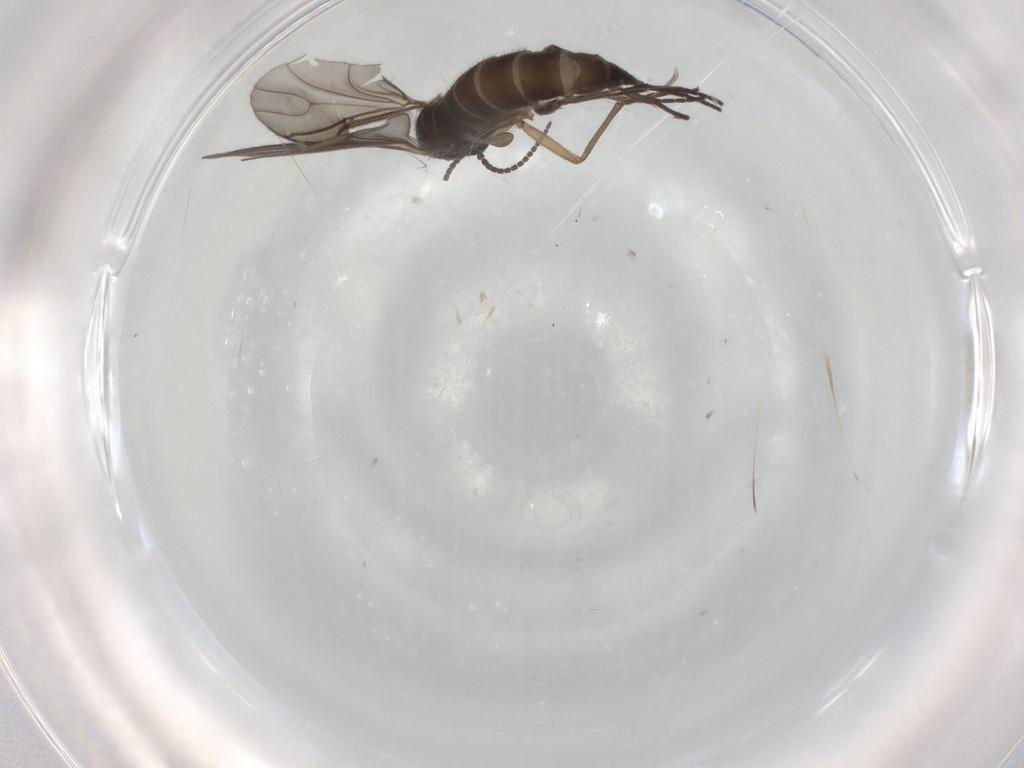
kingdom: Animalia
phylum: Arthropoda
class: Insecta
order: Diptera
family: Sciaridae
